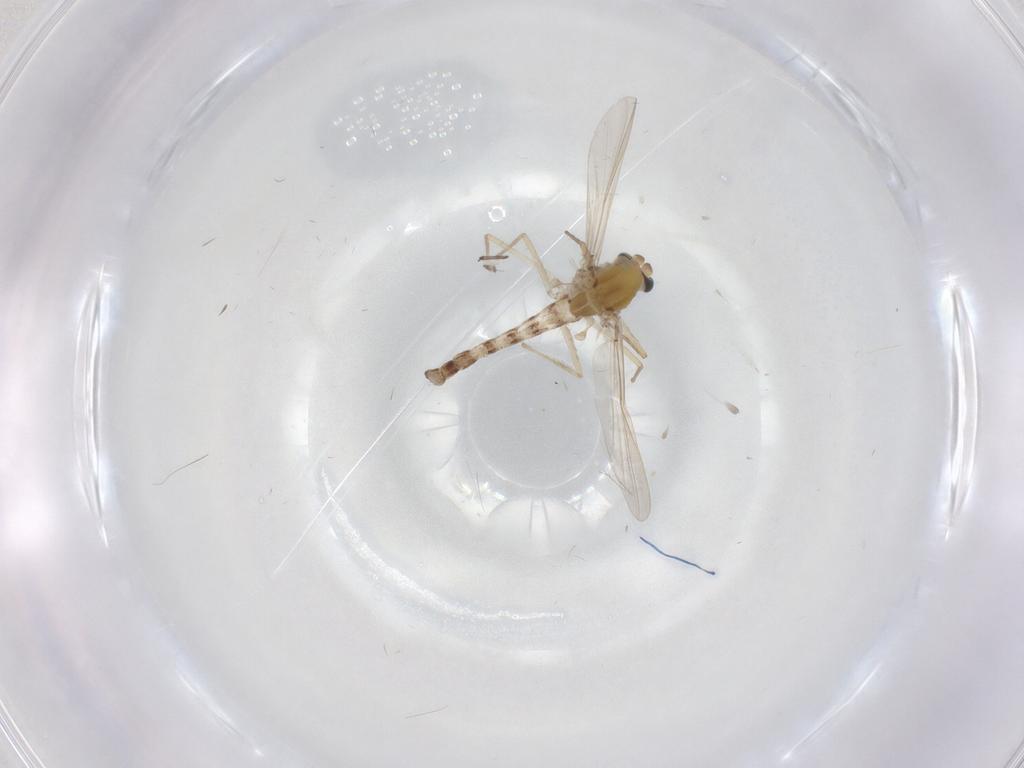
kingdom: Animalia
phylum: Arthropoda
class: Insecta
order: Diptera
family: Chironomidae
